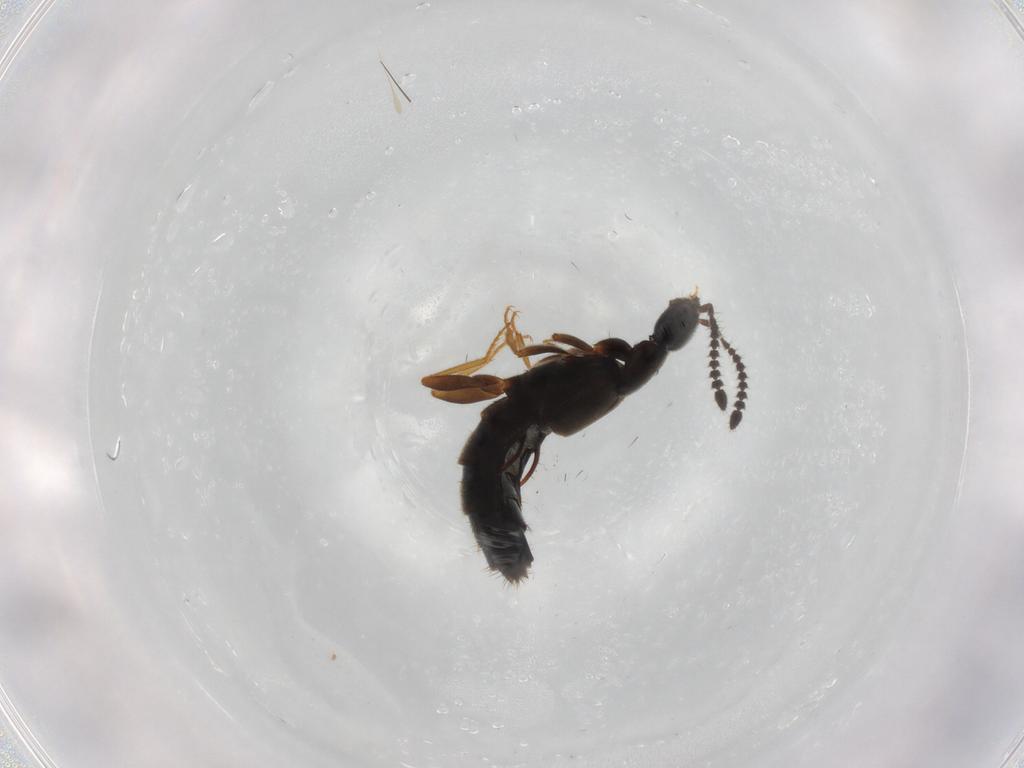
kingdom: Animalia
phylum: Arthropoda
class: Insecta
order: Coleoptera
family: Staphylinidae
